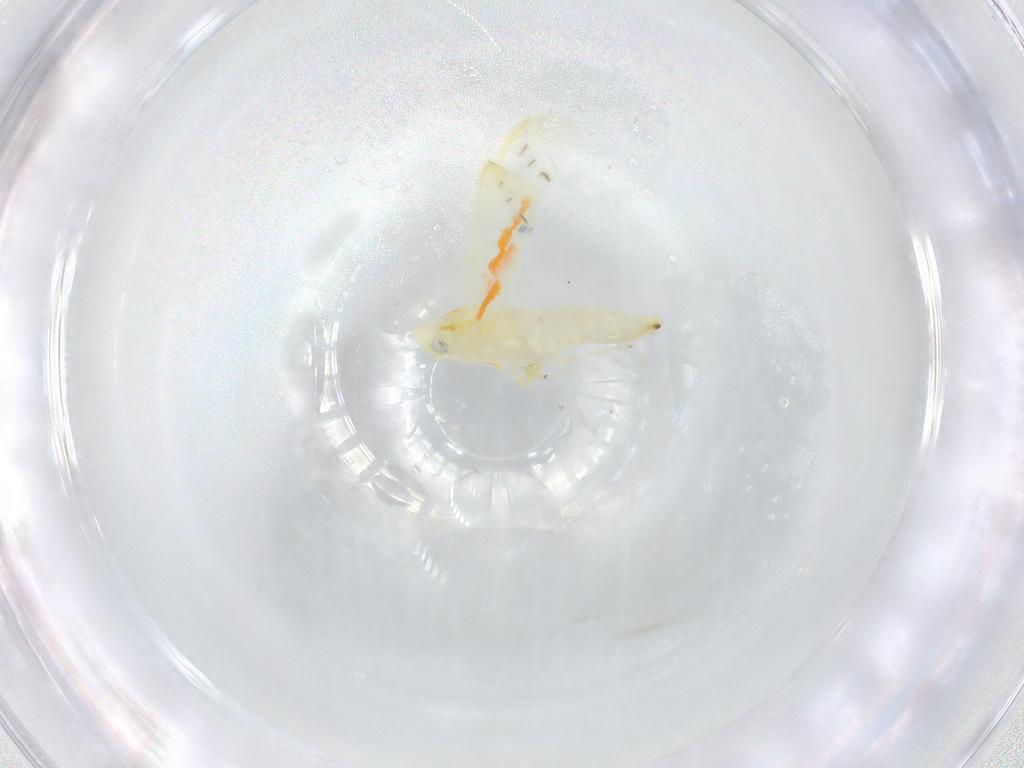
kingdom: Animalia
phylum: Arthropoda
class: Insecta
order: Hemiptera
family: Cicadellidae
